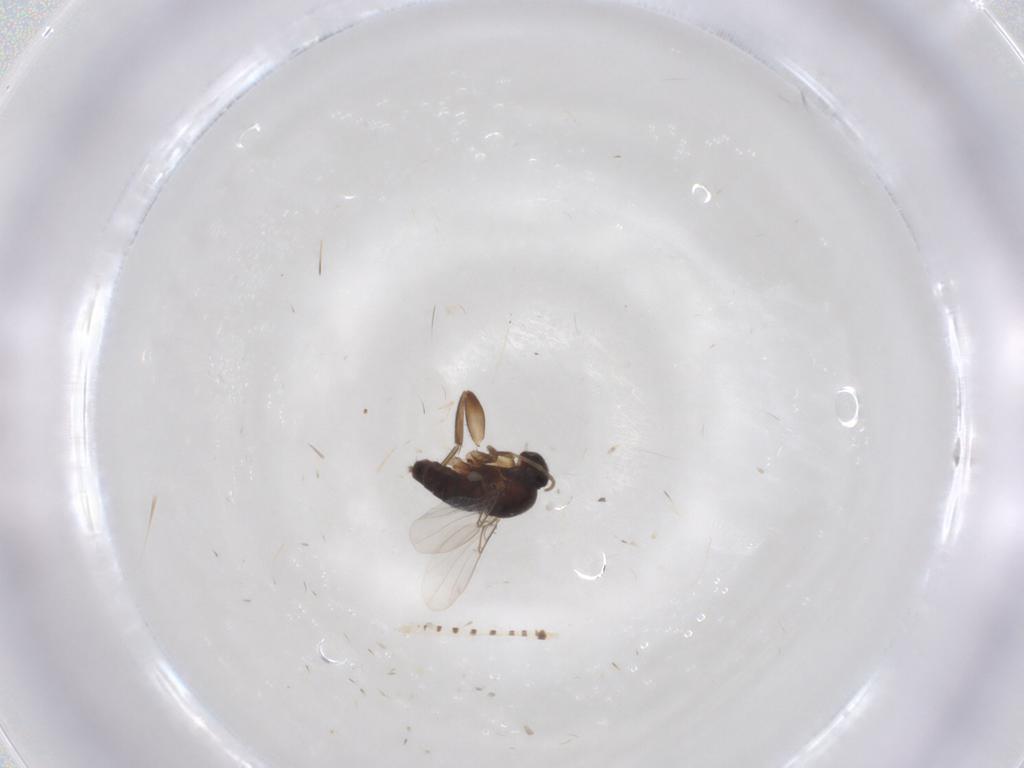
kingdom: Animalia
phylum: Arthropoda
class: Insecta
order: Diptera
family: Phoridae
